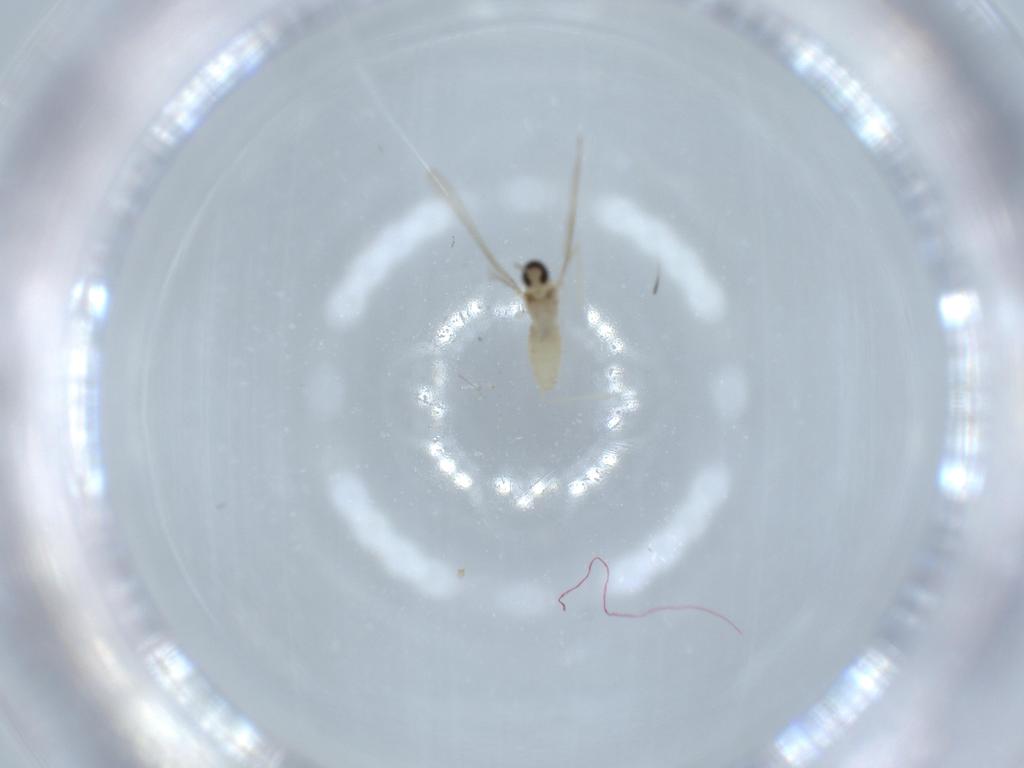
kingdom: Animalia
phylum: Arthropoda
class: Insecta
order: Diptera
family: Cecidomyiidae
